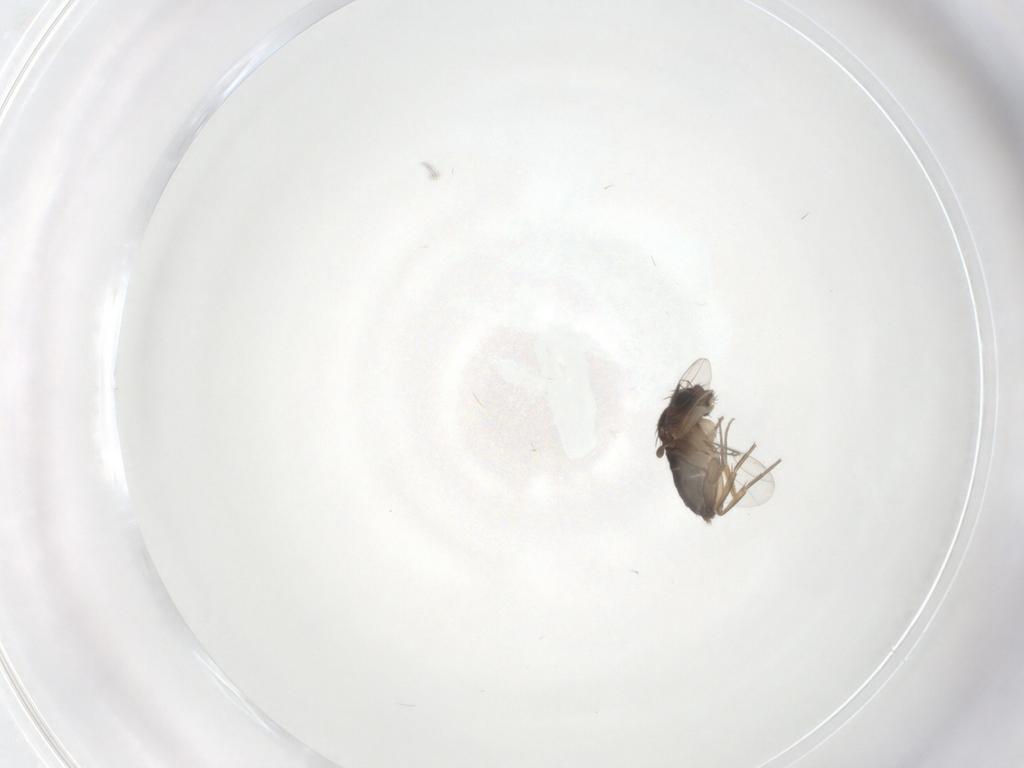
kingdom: Animalia
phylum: Arthropoda
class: Insecta
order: Diptera
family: Phoridae
